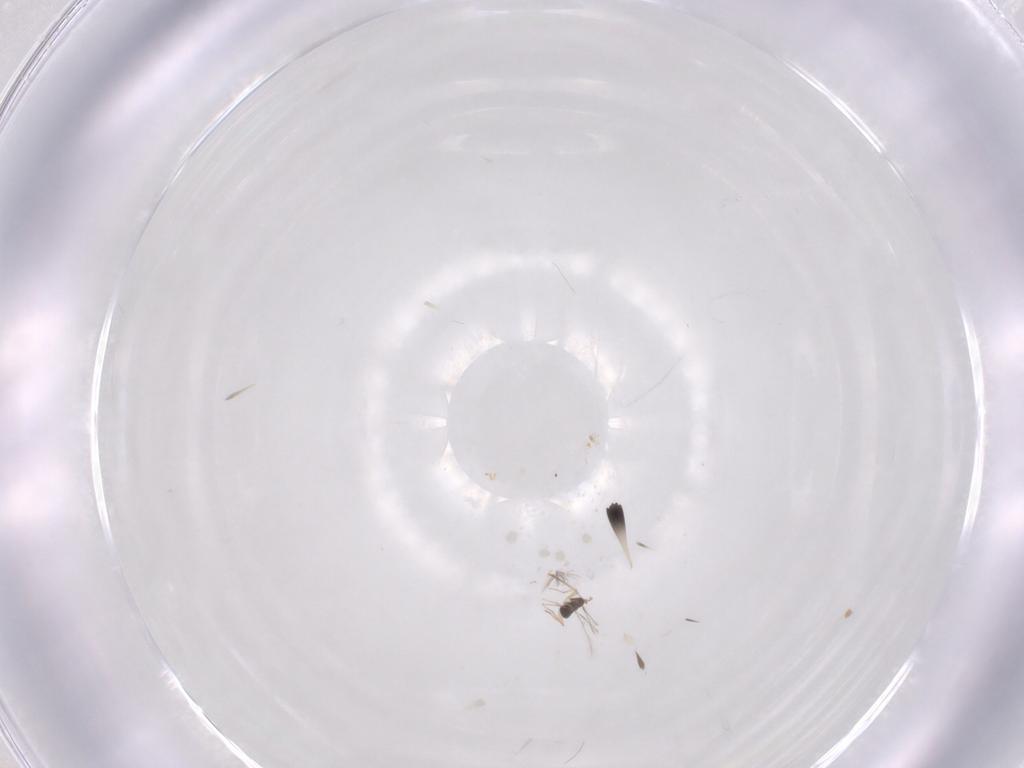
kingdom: Animalia
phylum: Arthropoda
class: Insecta
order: Hymenoptera
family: Mymaridae
